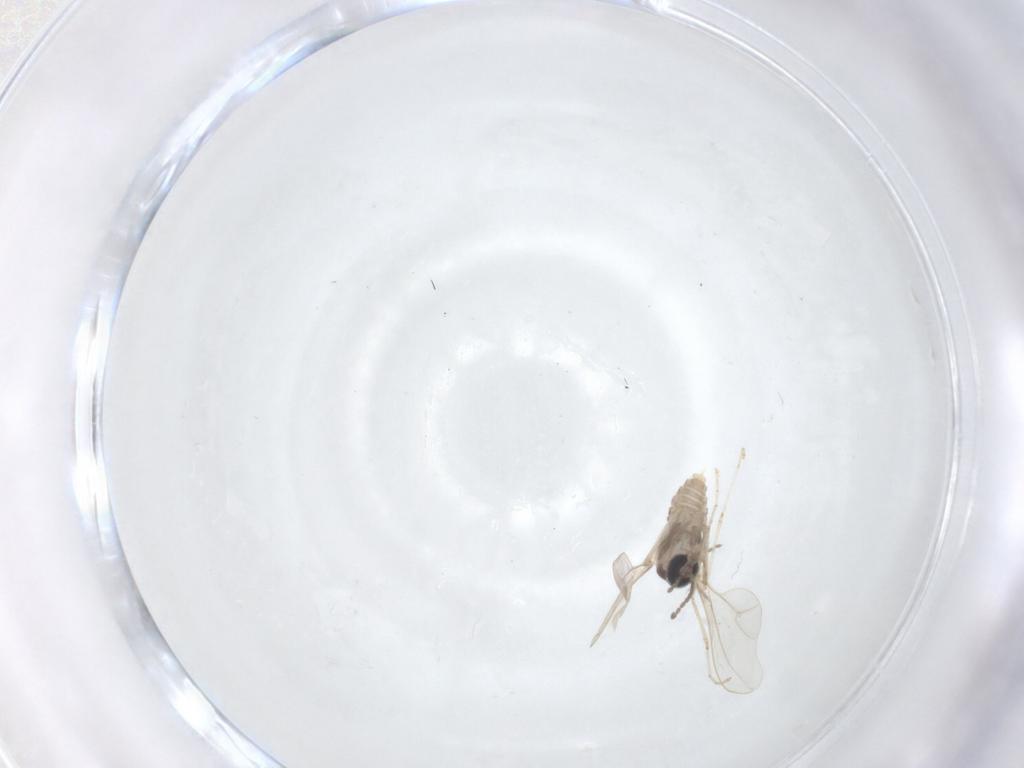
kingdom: Animalia
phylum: Arthropoda
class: Insecta
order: Diptera
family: Cecidomyiidae
